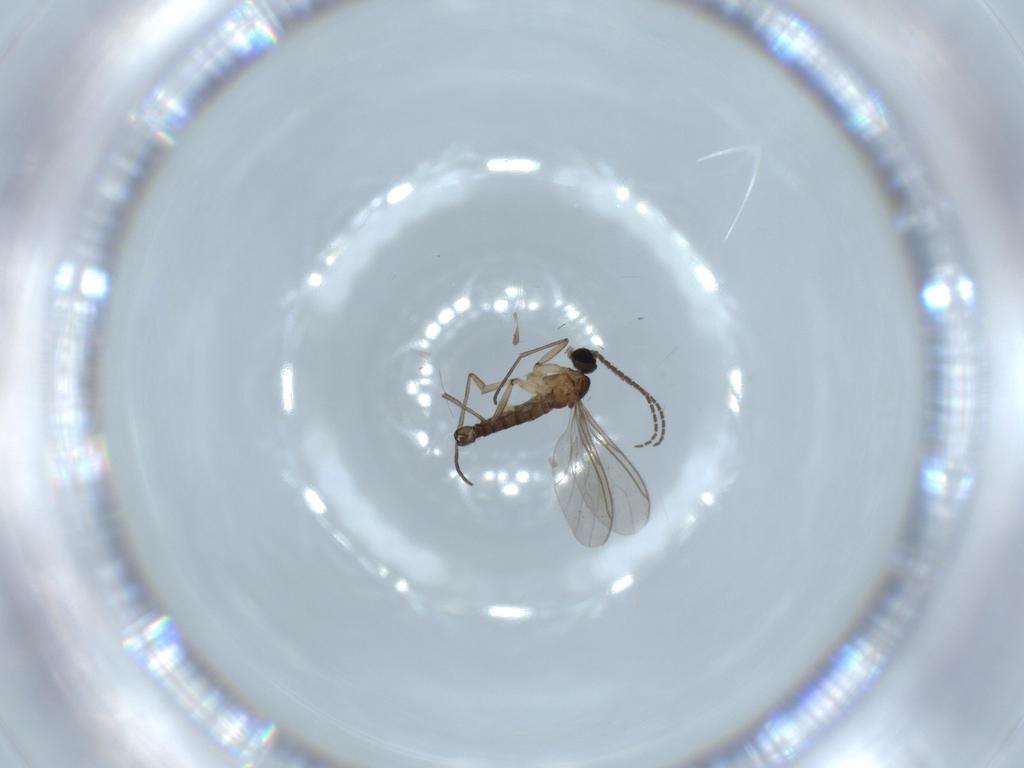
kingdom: Animalia
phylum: Arthropoda
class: Insecta
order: Diptera
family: Sciaridae
